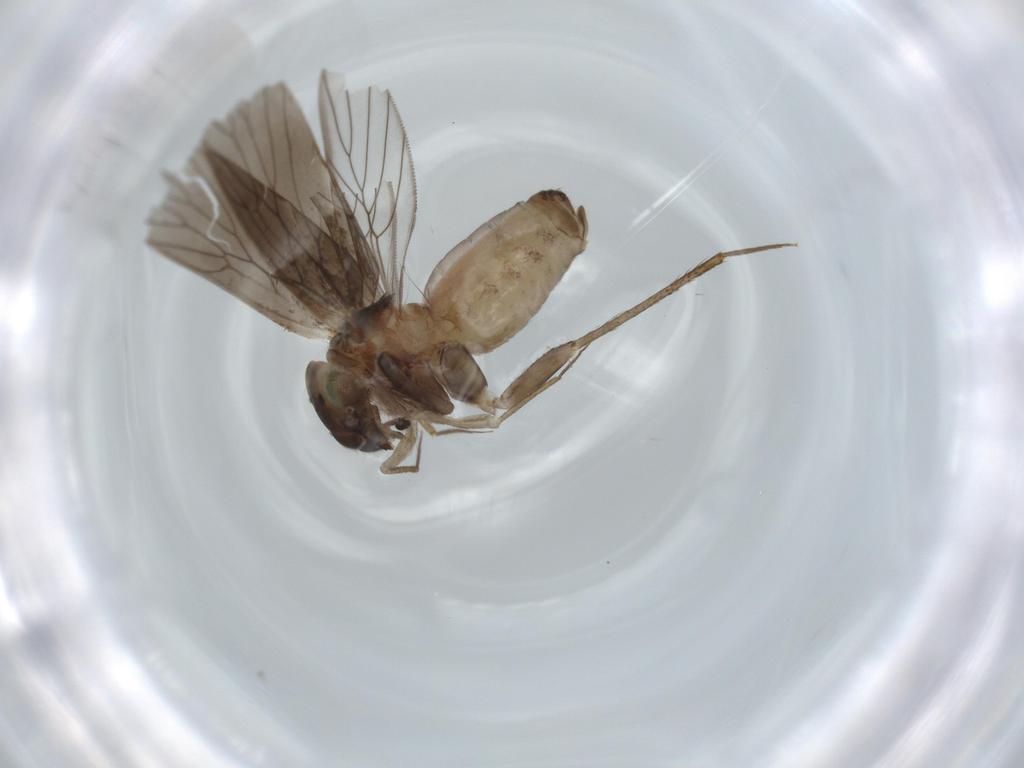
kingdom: Animalia
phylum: Arthropoda
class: Insecta
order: Psocodea
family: Lepidopsocidae
